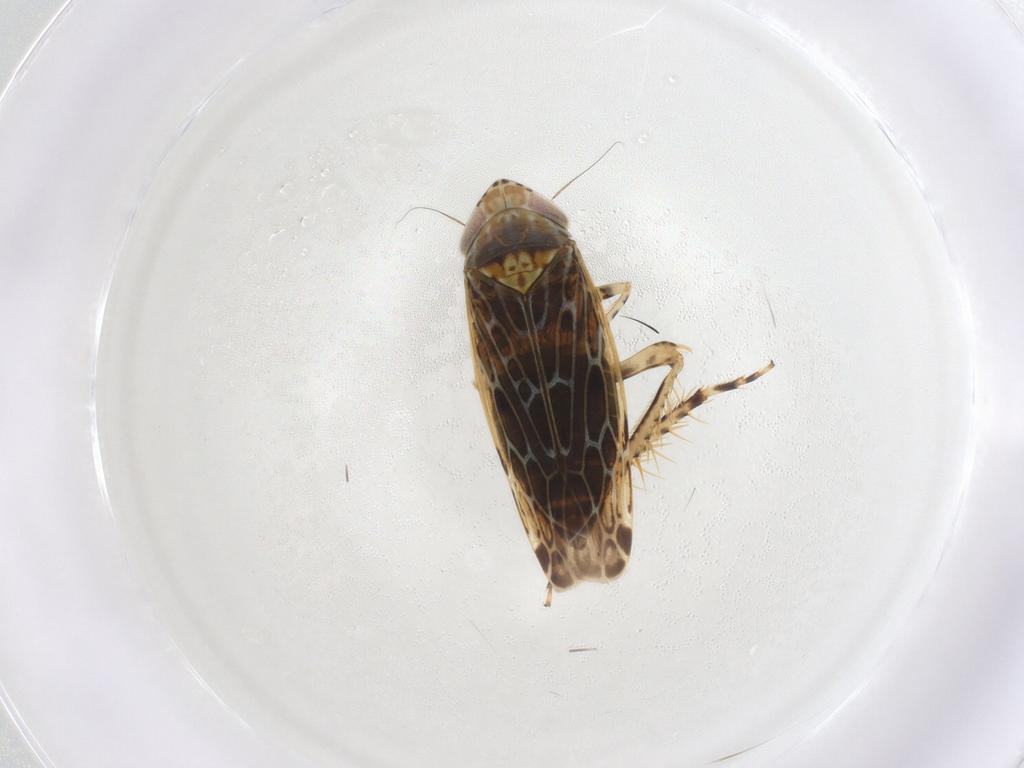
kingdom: Animalia
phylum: Arthropoda
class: Insecta
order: Hemiptera
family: Cicadellidae
